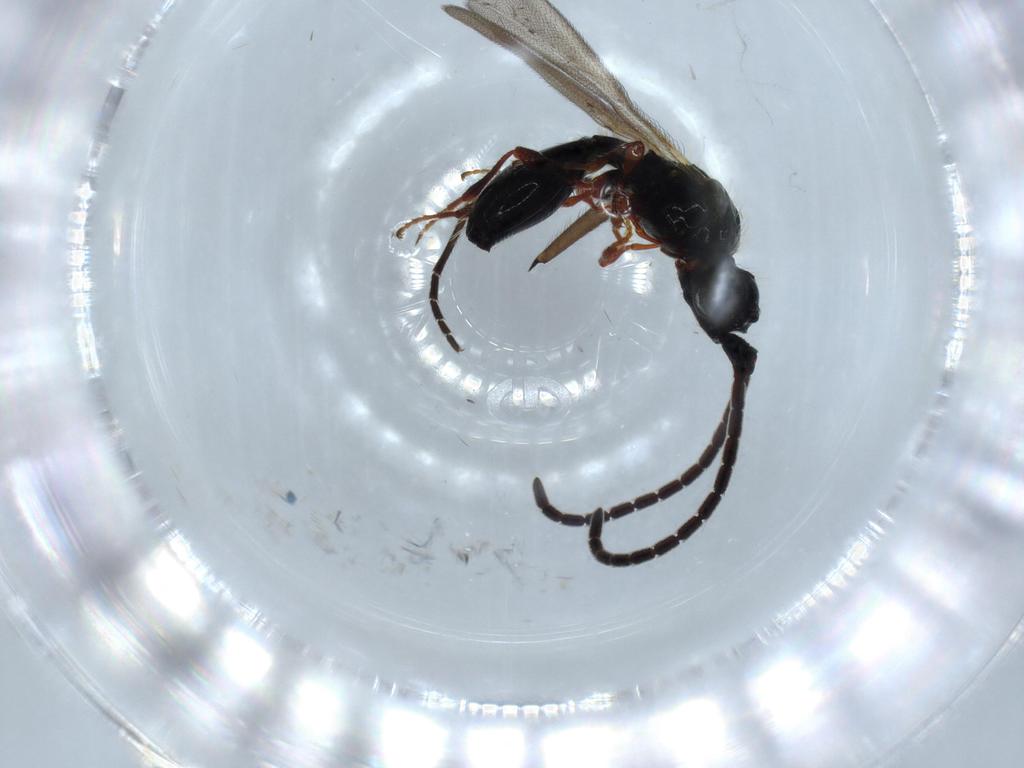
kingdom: Animalia
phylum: Arthropoda
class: Insecta
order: Hymenoptera
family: Diapriidae
